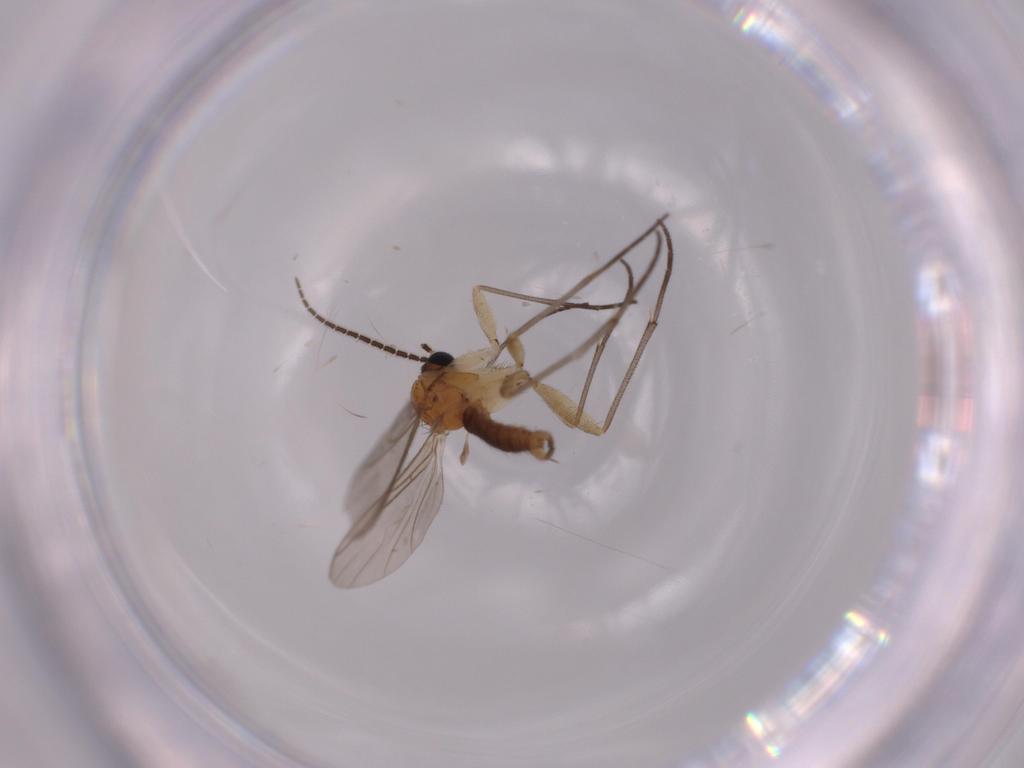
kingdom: Animalia
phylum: Arthropoda
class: Insecta
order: Diptera
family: Sciaridae
